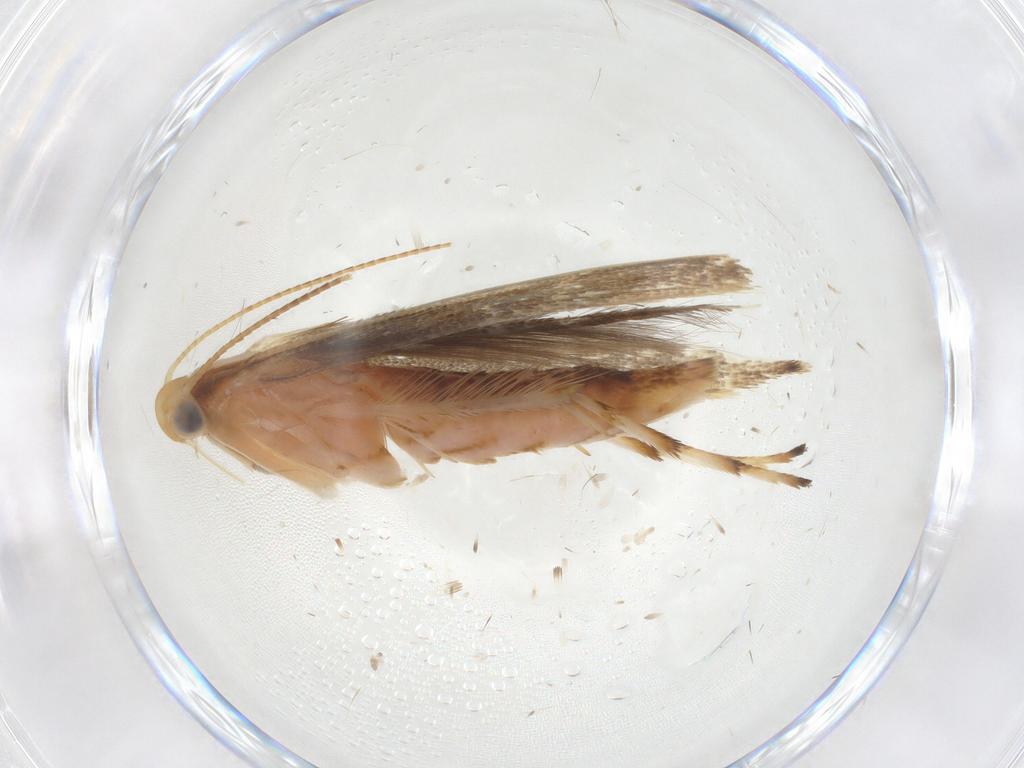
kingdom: Animalia
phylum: Arthropoda
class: Insecta
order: Lepidoptera
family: Gracillariidae
